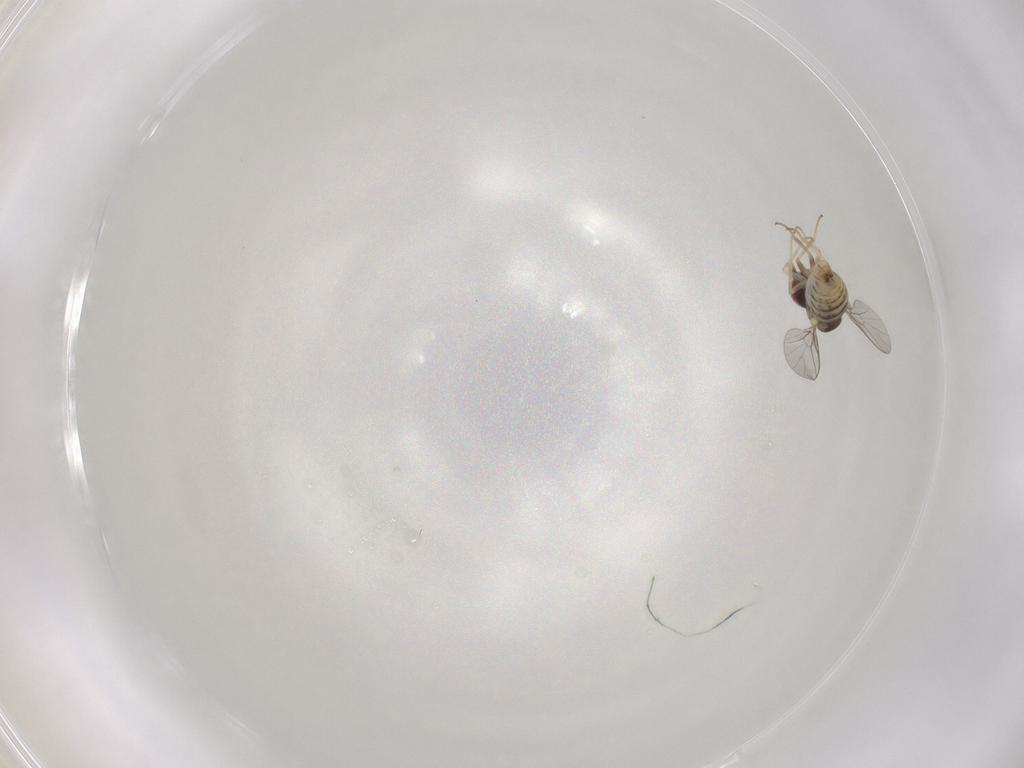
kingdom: Animalia
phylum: Arthropoda
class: Insecta
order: Diptera
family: Bombyliidae
